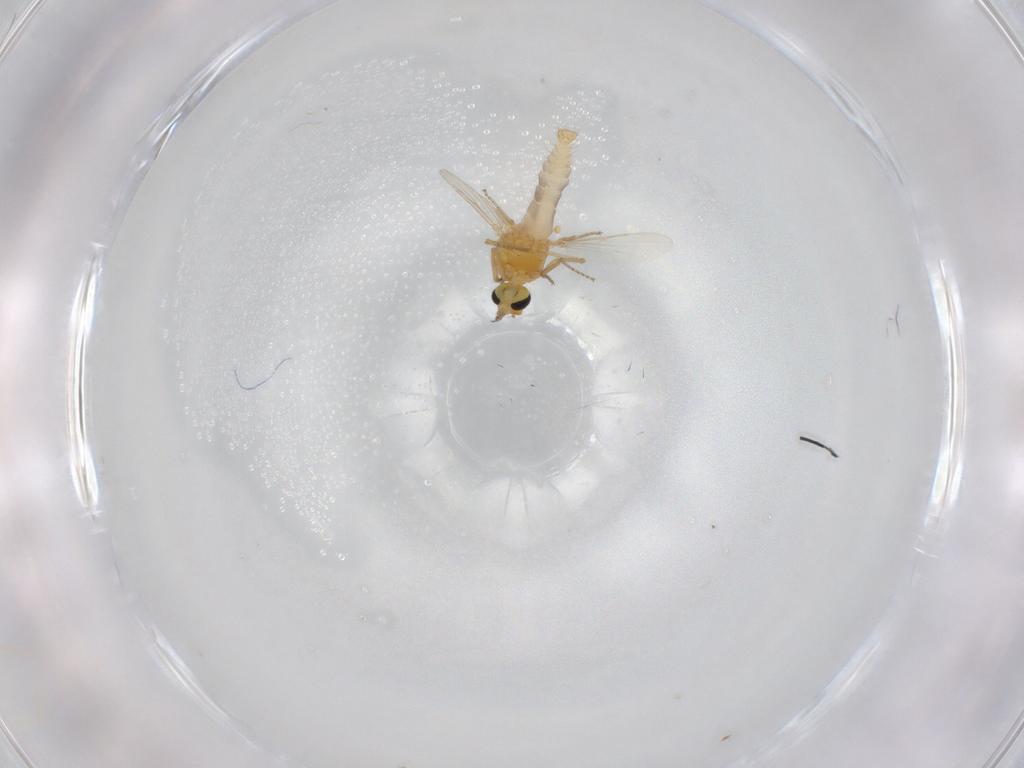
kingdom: Animalia
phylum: Arthropoda
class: Insecta
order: Diptera
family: Ceratopogonidae
